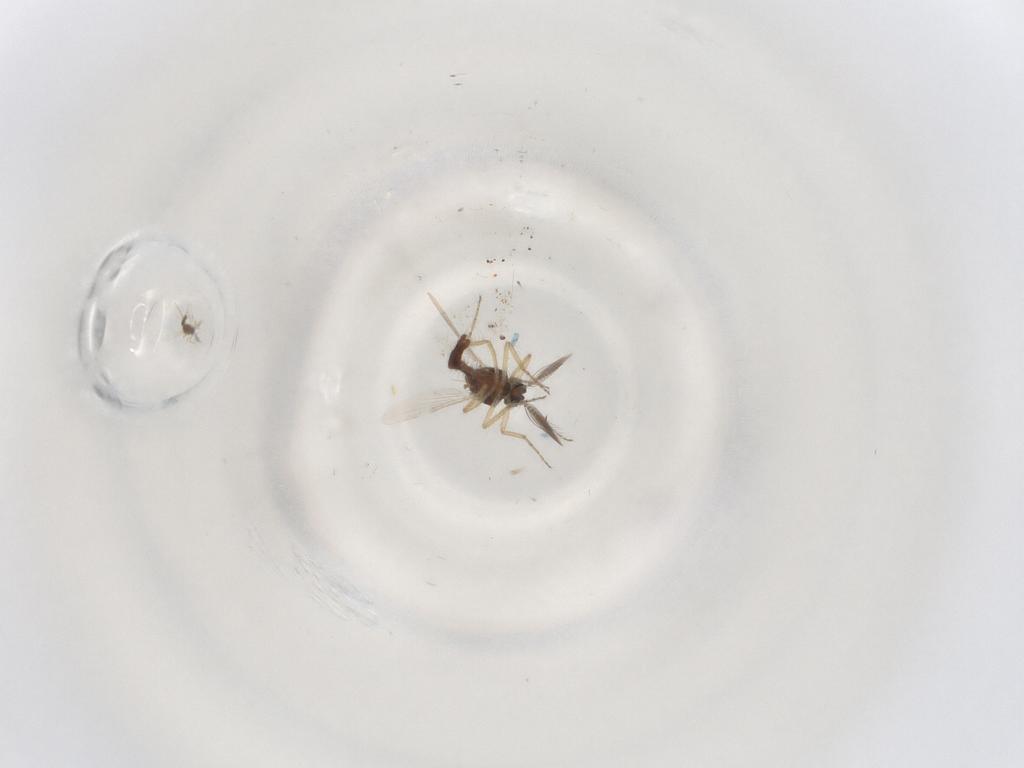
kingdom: Animalia
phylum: Arthropoda
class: Insecta
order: Diptera
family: Ceratopogonidae
